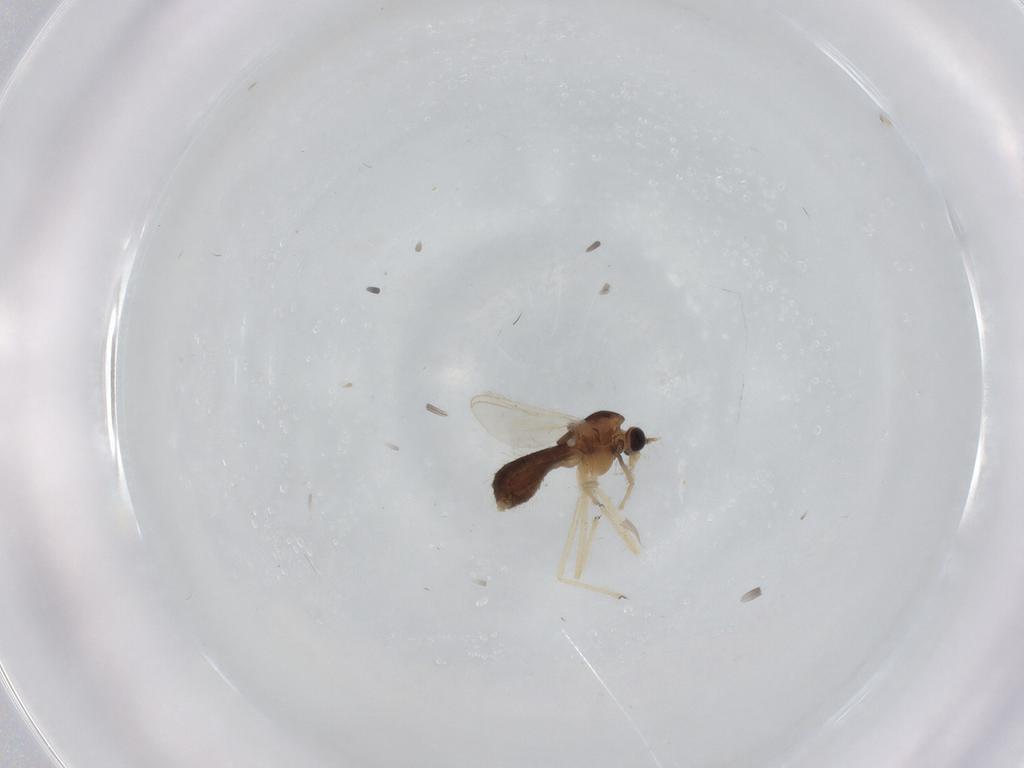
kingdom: Animalia
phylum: Arthropoda
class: Insecta
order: Diptera
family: Chironomidae
